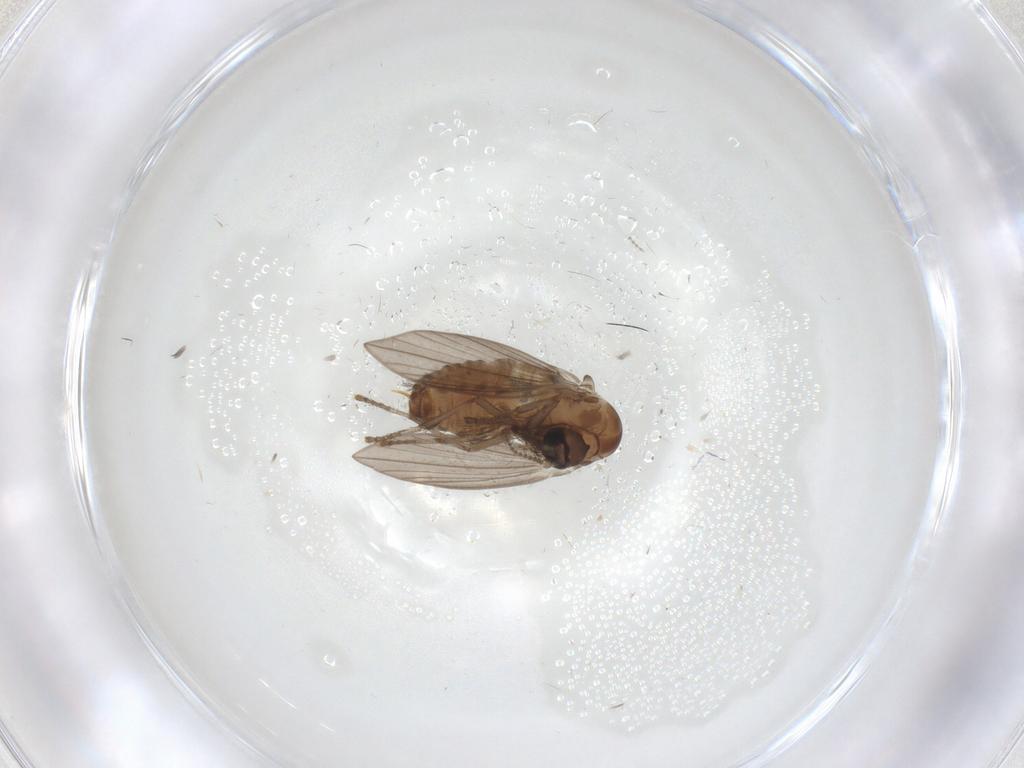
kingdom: Animalia
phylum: Arthropoda
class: Insecta
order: Diptera
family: Psychodidae
